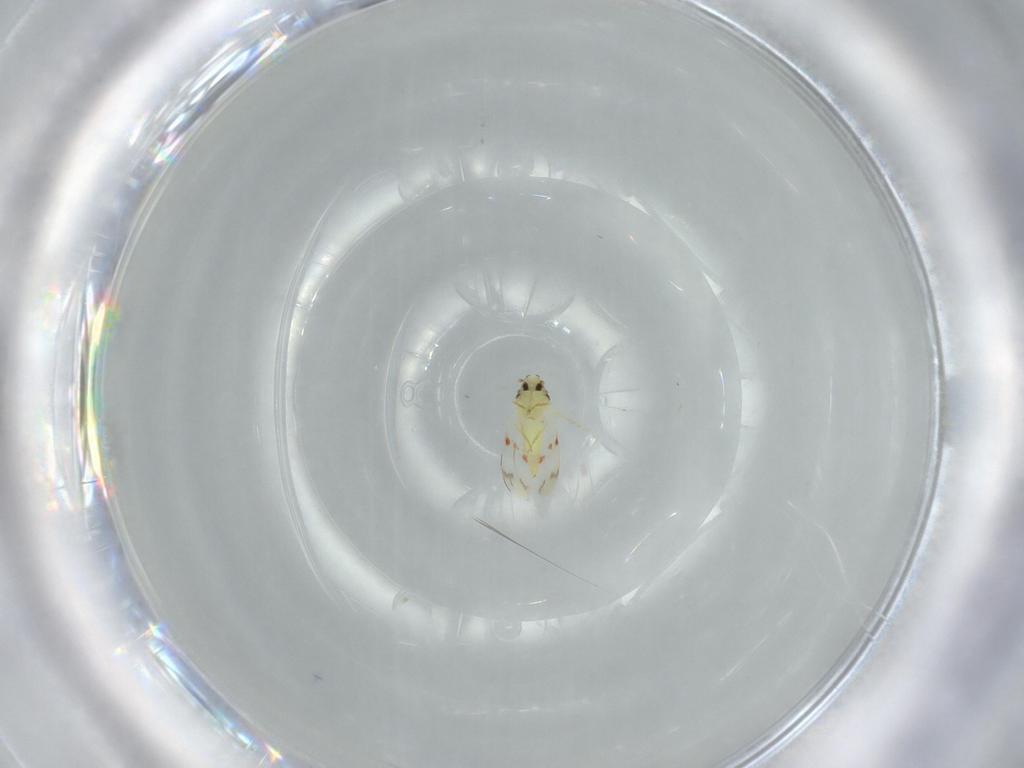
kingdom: Animalia
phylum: Arthropoda
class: Insecta
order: Hemiptera
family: Aleyrodidae
